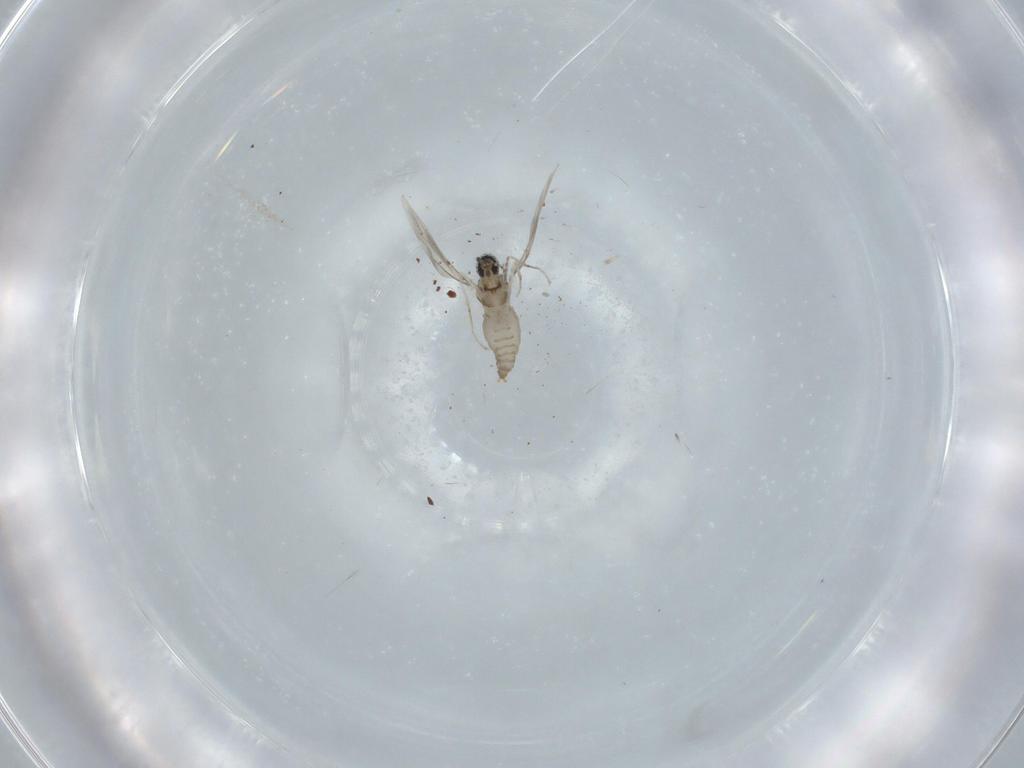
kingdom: Animalia
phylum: Arthropoda
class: Insecta
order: Diptera
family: Cecidomyiidae
